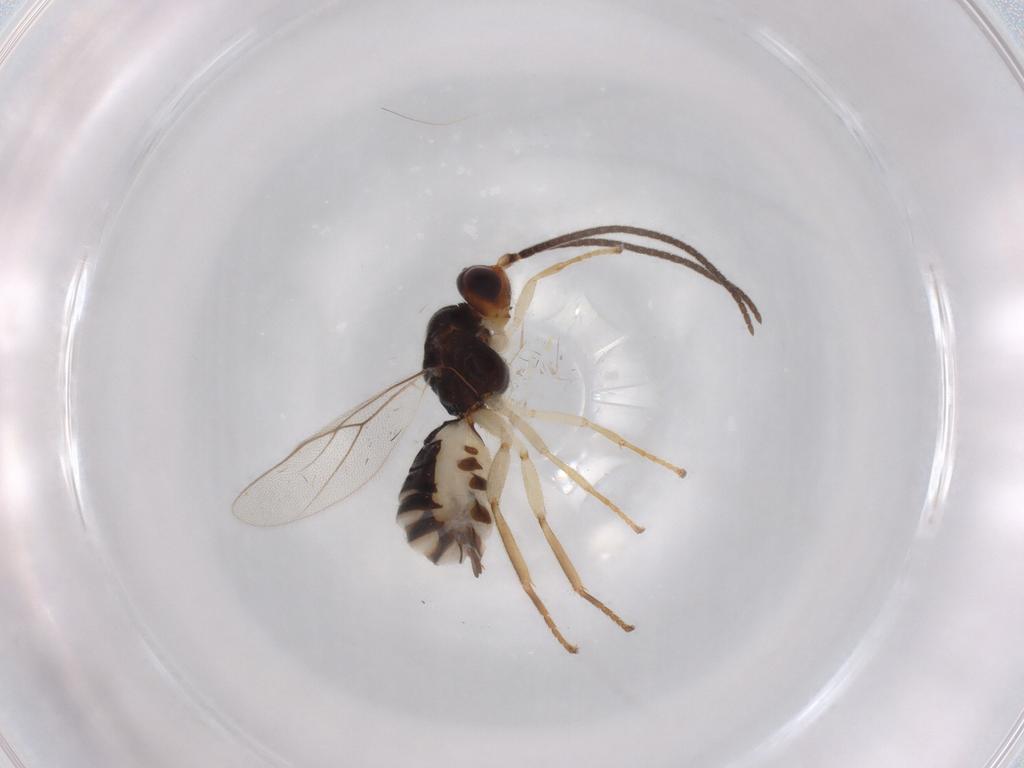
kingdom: Animalia
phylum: Arthropoda
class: Insecta
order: Hymenoptera
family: Braconidae
